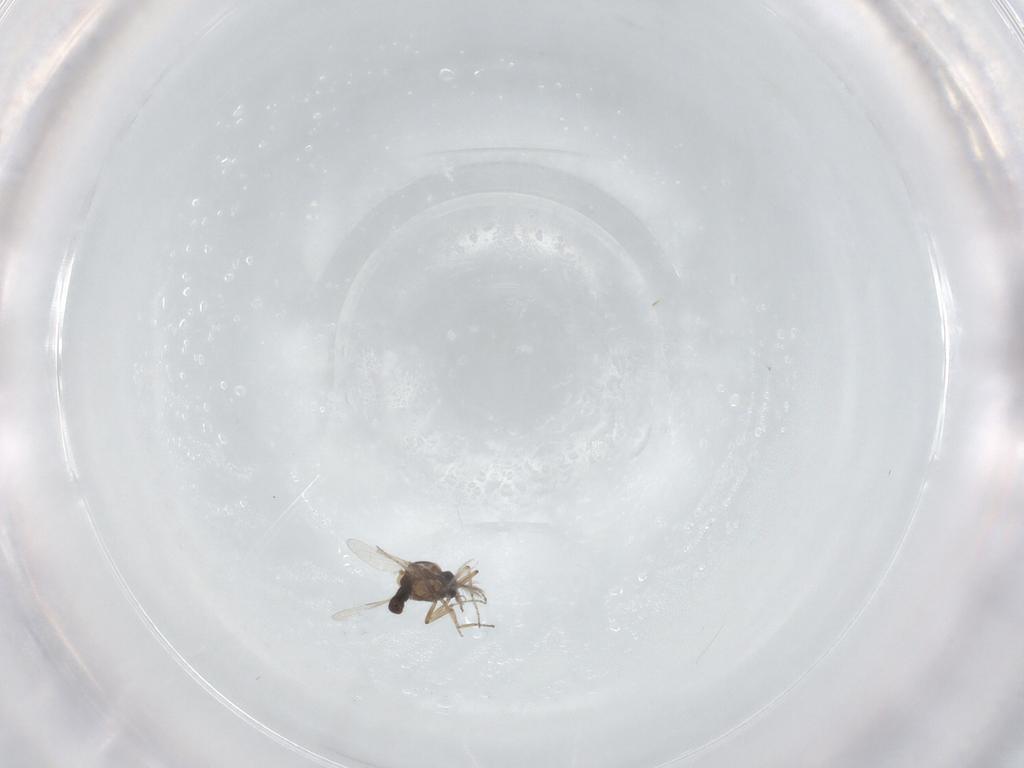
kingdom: Animalia
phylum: Arthropoda
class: Insecta
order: Diptera
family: Ceratopogonidae
